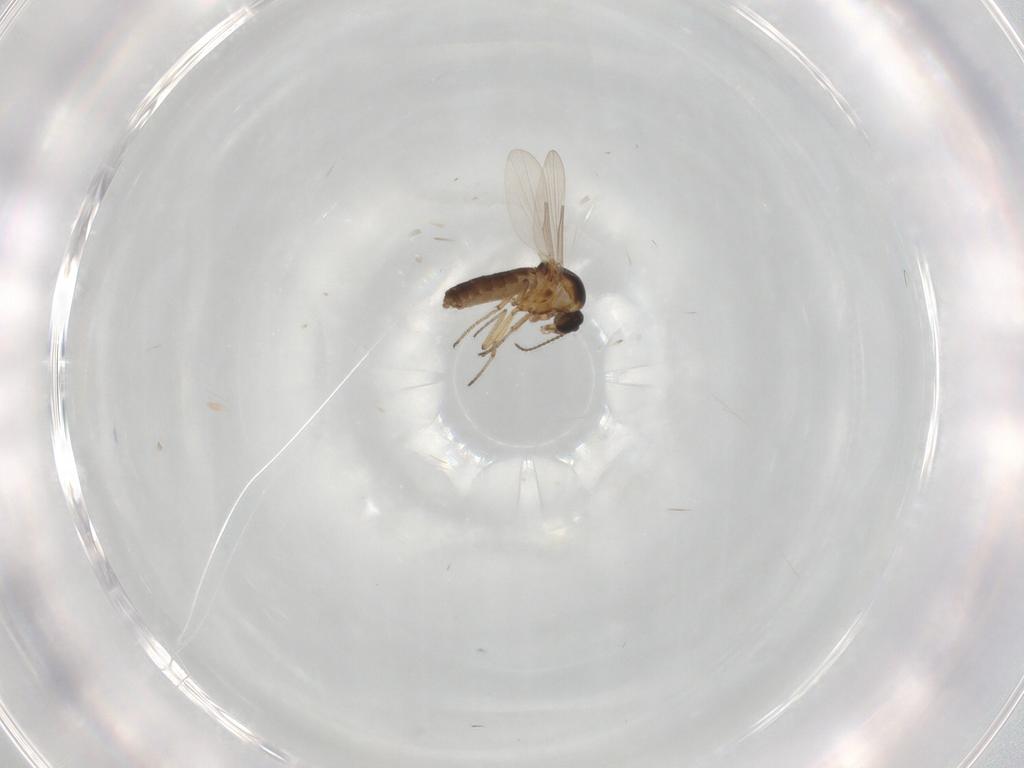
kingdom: Animalia
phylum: Arthropoda
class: Insecta
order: Diptera
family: Ceratopogonidae
